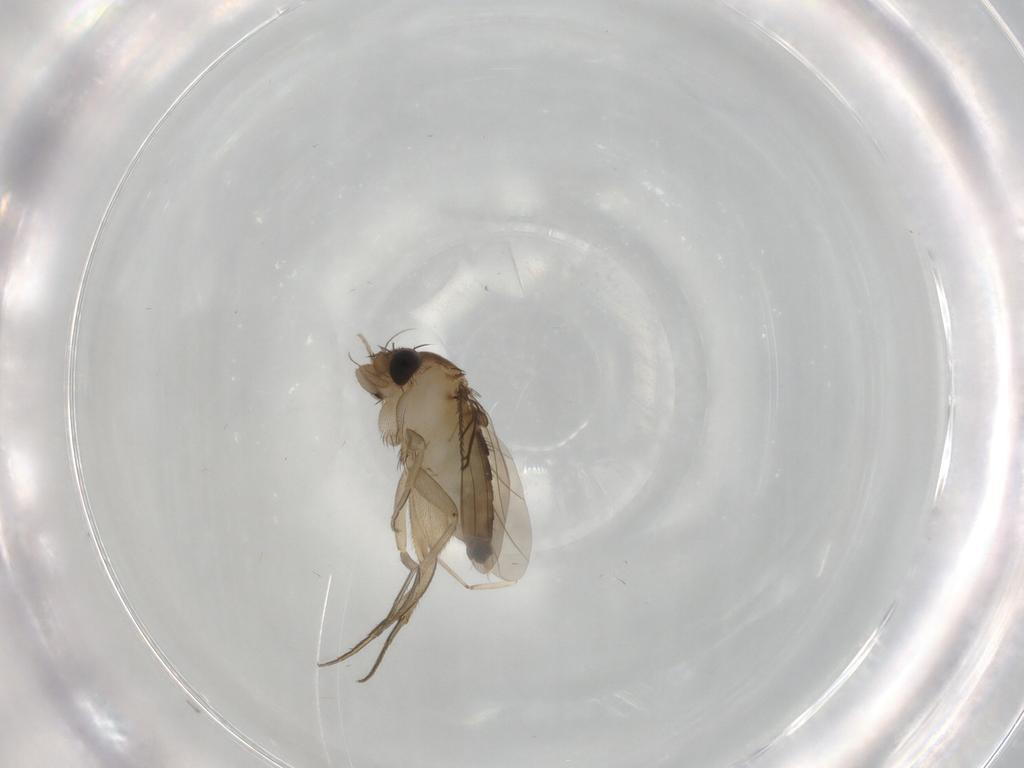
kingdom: Animalia
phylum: Arthropoda
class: Insecta
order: Diptera
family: Phoridae
